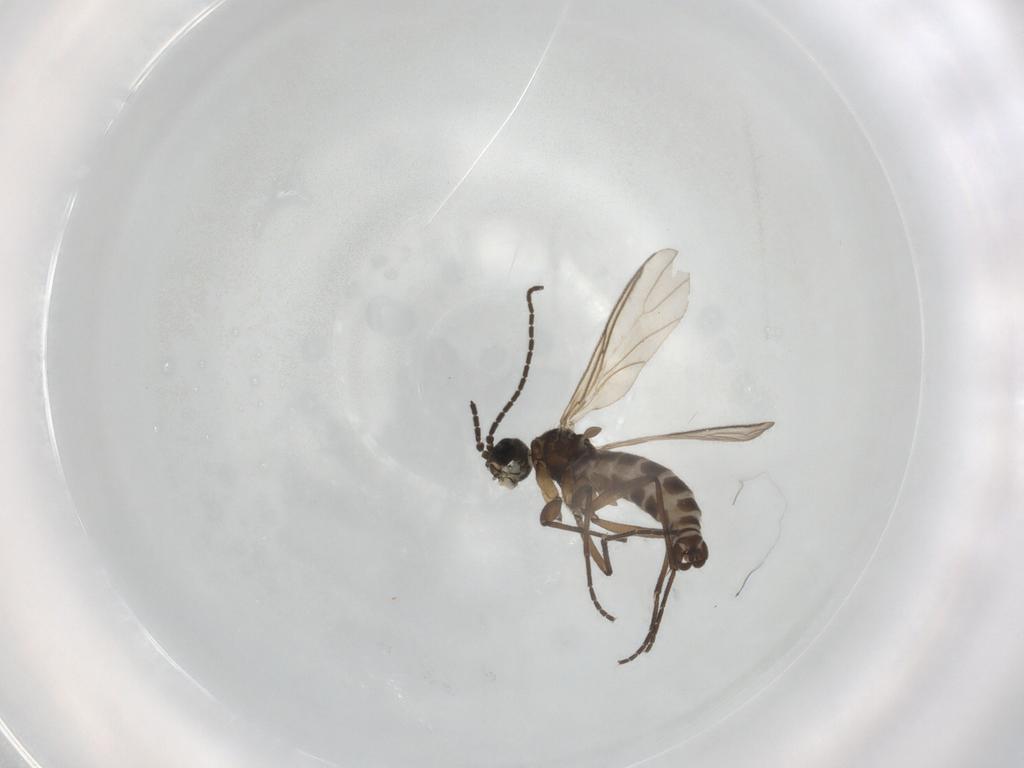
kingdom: Animalia
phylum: Arthropoda
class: Insecta
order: Diptera
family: Sciaridae
